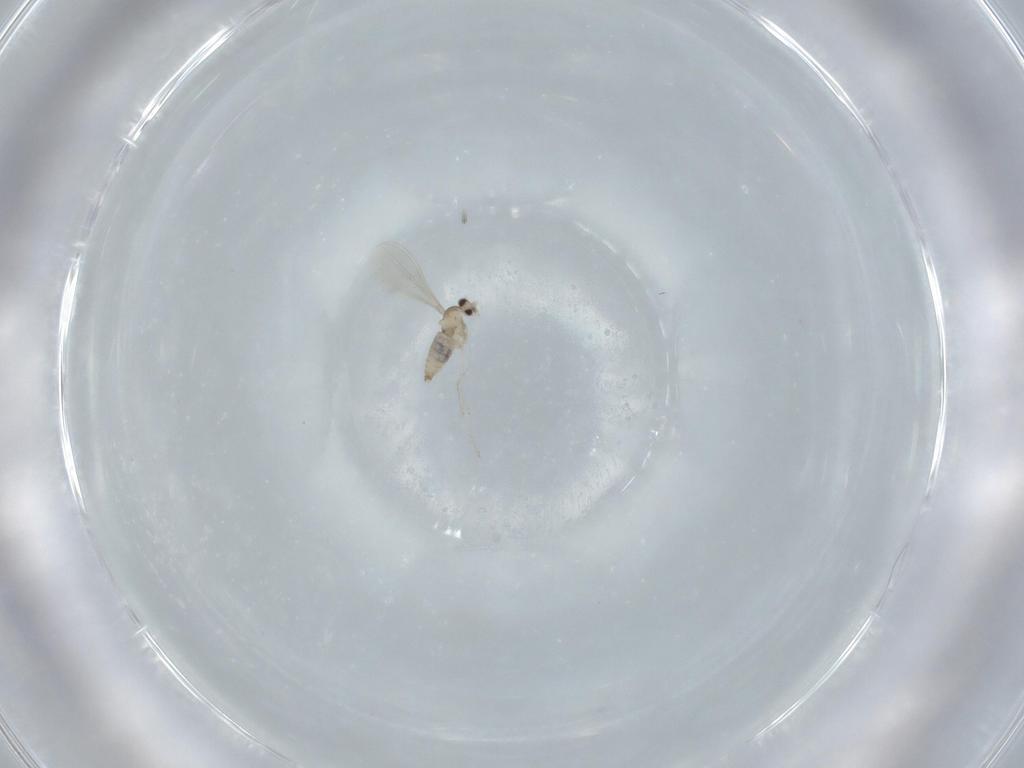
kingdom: Animalia
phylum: Arthropoda
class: Insecta
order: Diptera
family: Cecidomyiidae
